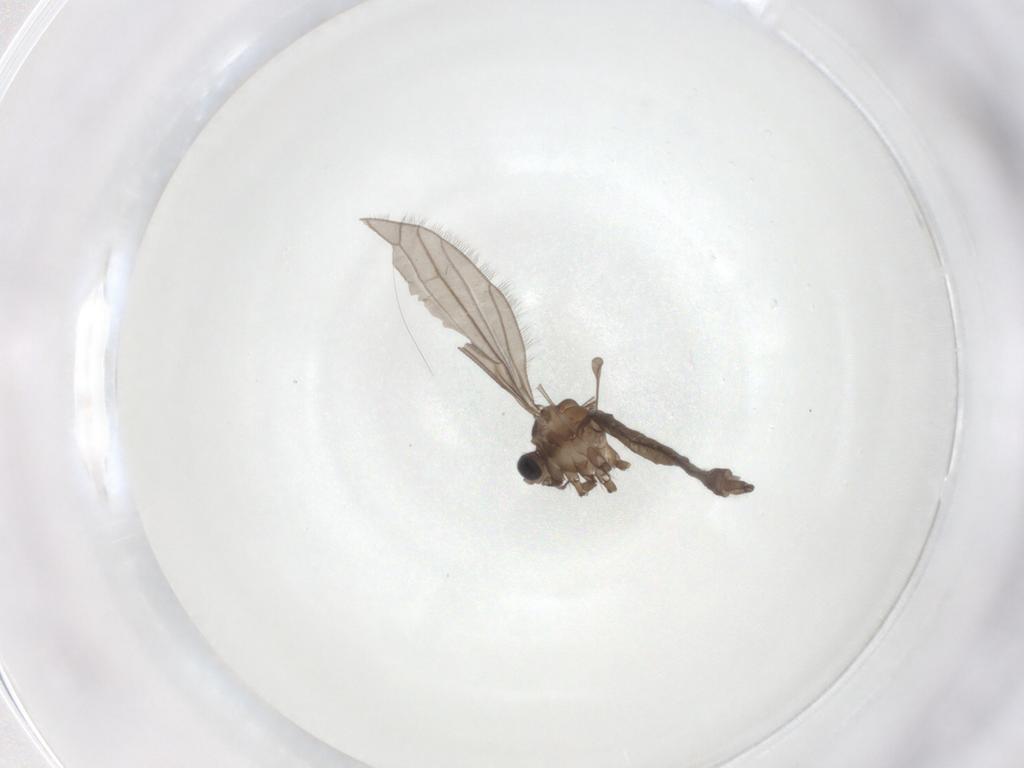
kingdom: Animalia
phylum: Arthropoda
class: Insecta
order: Diptera
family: Limoniidae
